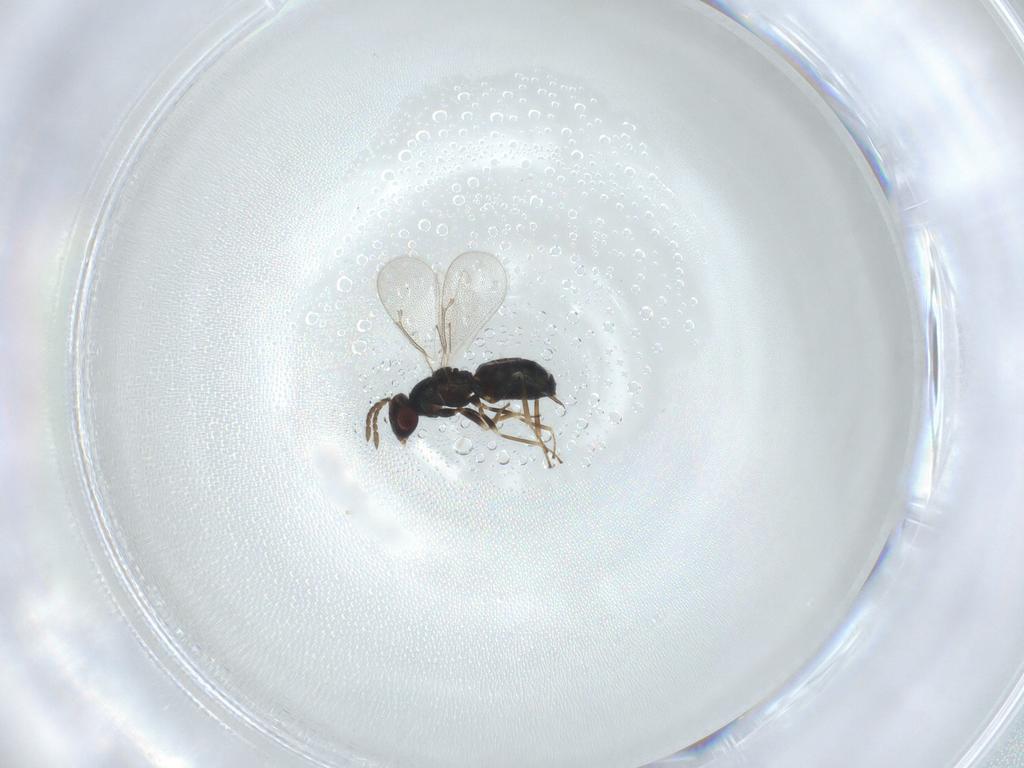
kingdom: Animalia
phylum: Arthropoda
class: Insecta
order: Hymenoptera
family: Eulophidae
